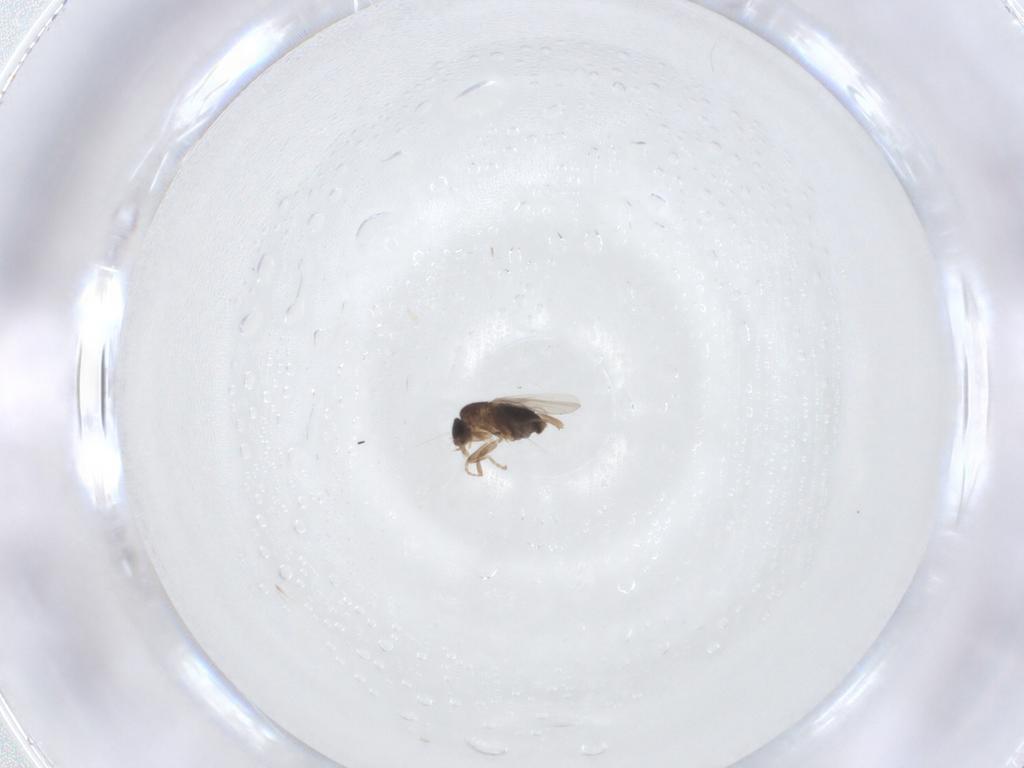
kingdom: Animalia
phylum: Arthropoda
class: Insecta
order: Diptera
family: Phoridae
